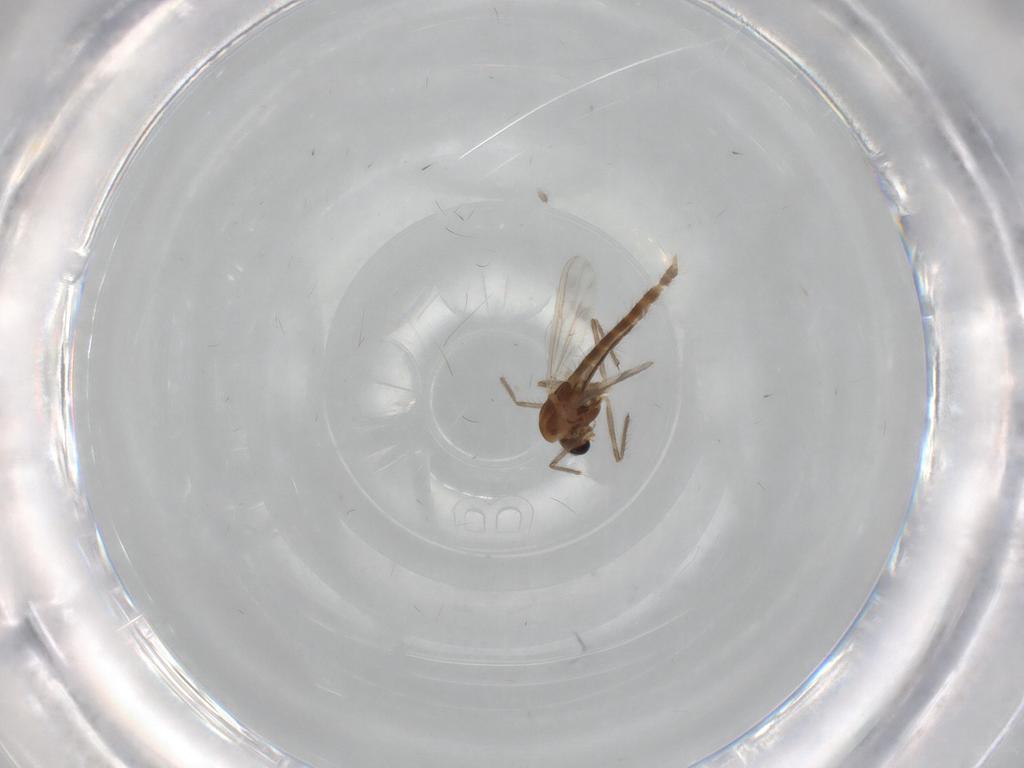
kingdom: Animalia
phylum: Arthropoda
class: Insecta
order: Diptera
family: Chironomidae
